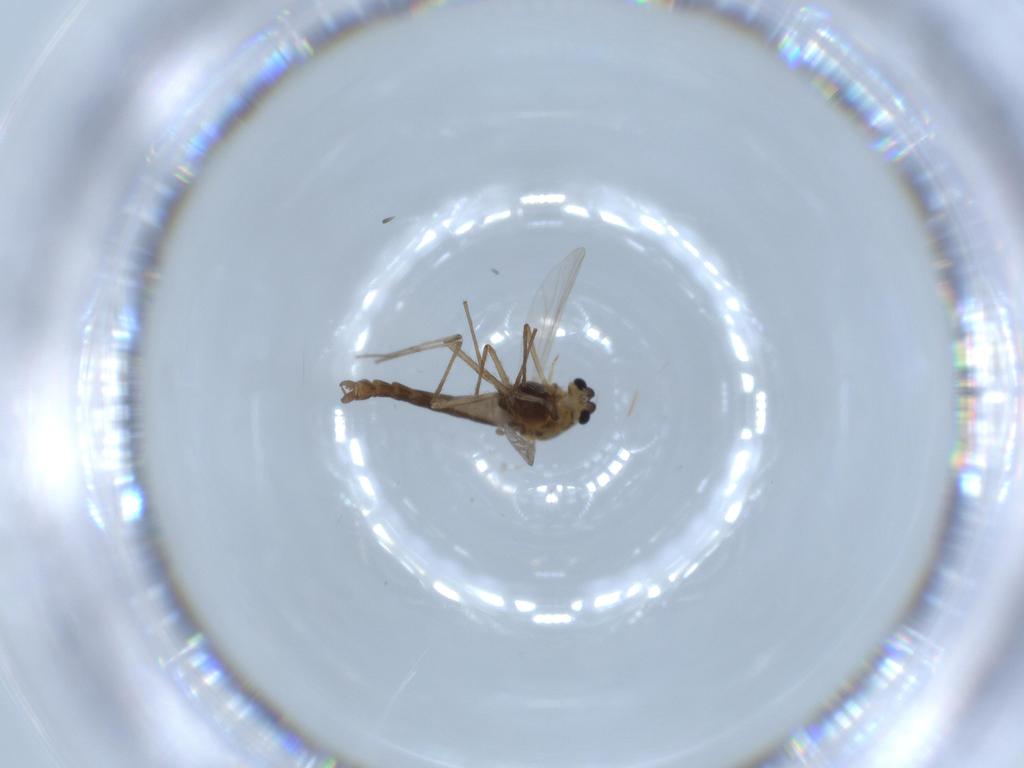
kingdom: Animalia
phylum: Arthropoda
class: Insecta
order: Diptera
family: Chironomidae
